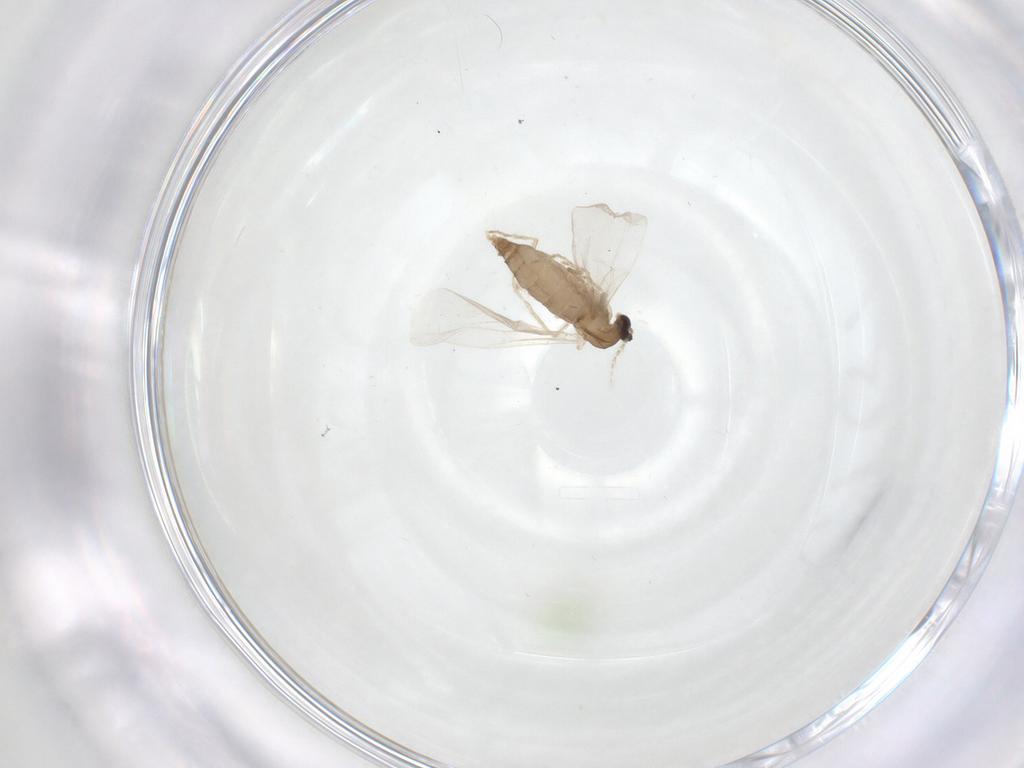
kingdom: Animalia
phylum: Arthropoda
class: Insecta
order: Diptera
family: Cecidomyiidae
